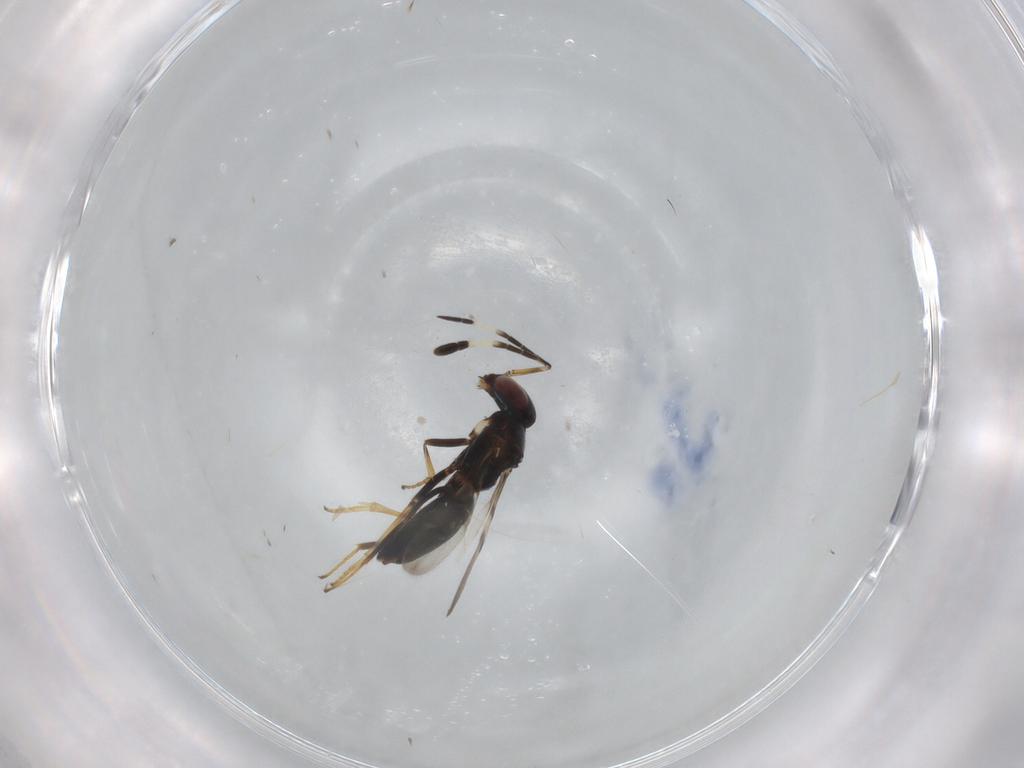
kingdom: Animalia
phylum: Arthropoda
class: Insecta
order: Hymenoptera
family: Encyrtidae
